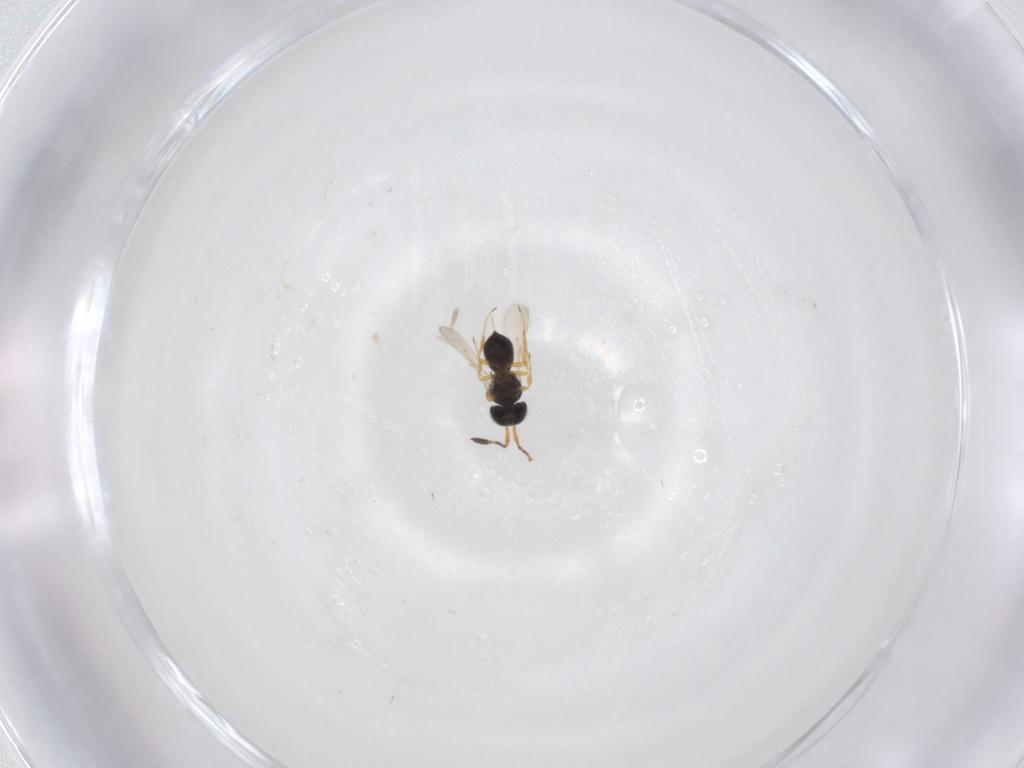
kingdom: Animalia
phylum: Arthropoda
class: Insecta
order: Hymenoptera
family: Scelionidae
